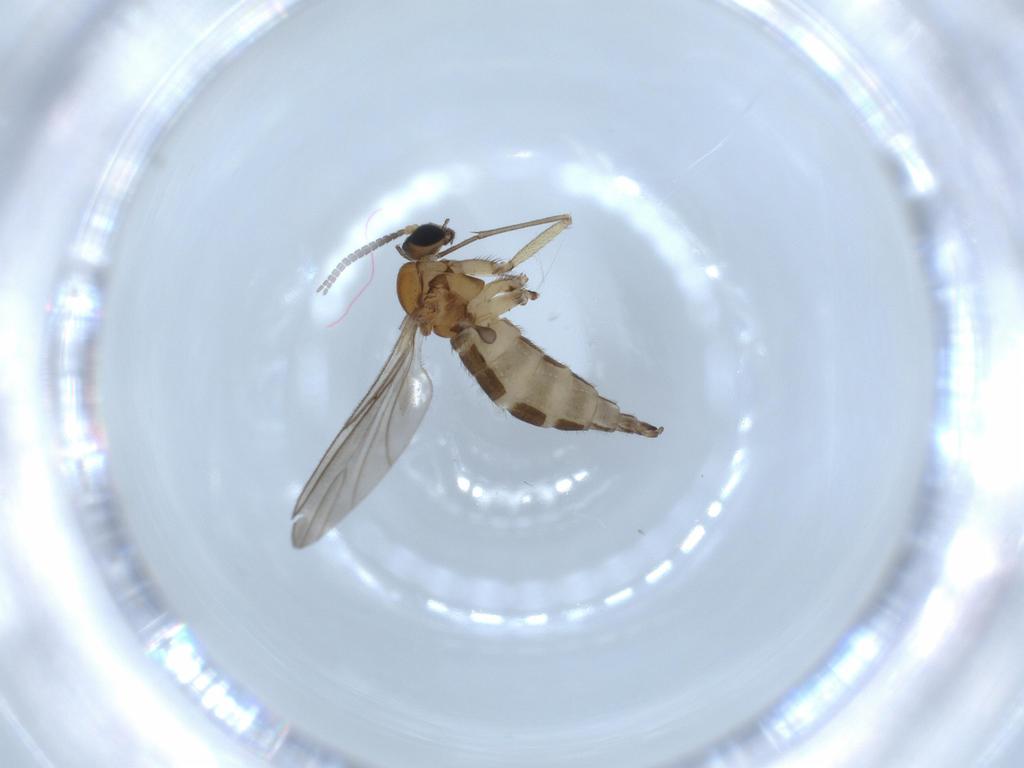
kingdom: Animalia
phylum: Arthropoda
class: Insecta
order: Diptera
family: Sciaridae
